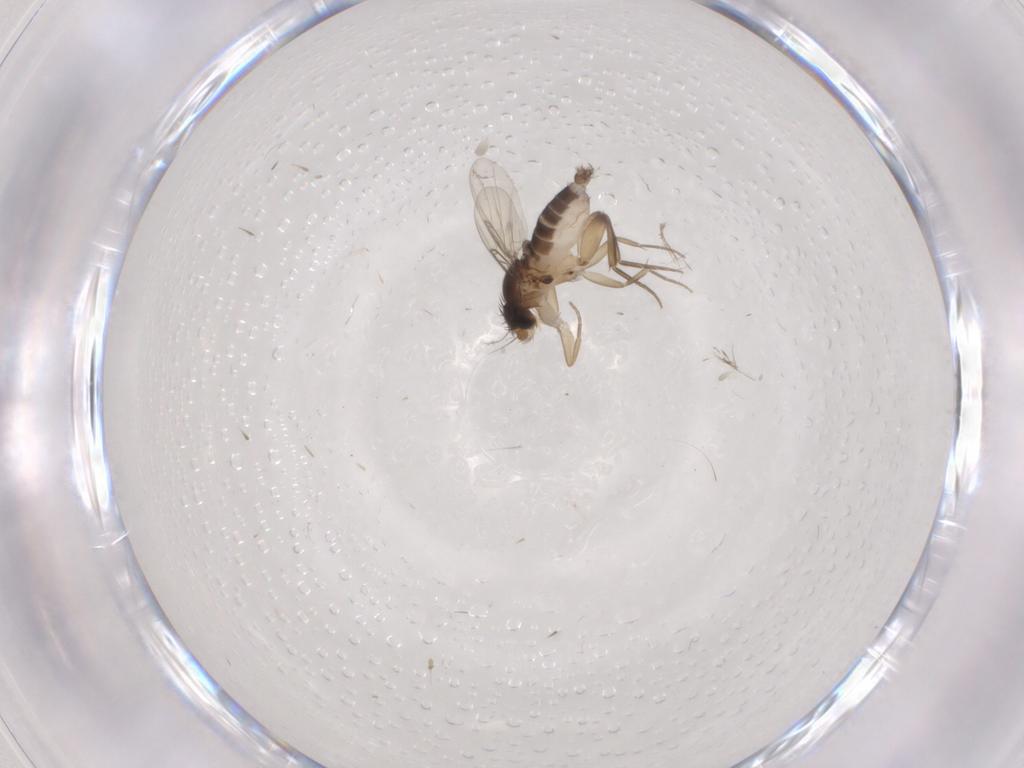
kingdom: Animalia
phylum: Arthropoda
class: Insecta
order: Diptera
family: Phoridae
